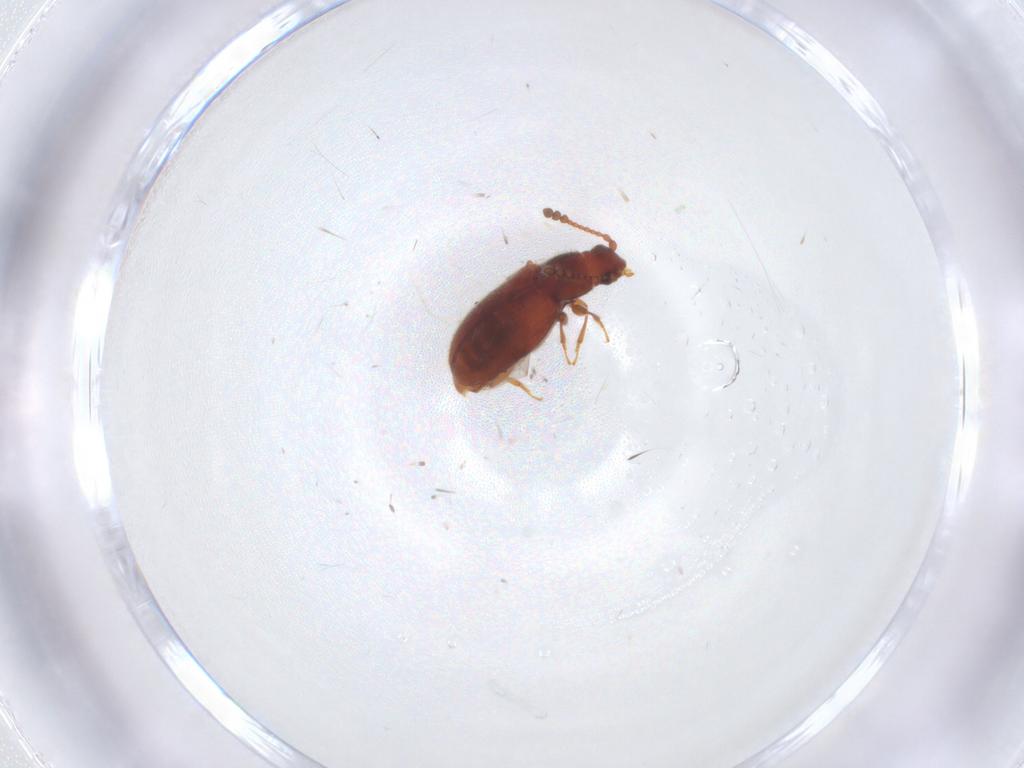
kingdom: Animalia
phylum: Arthropoda
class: Insecta
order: Coleoptera
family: Cryptophagidae
